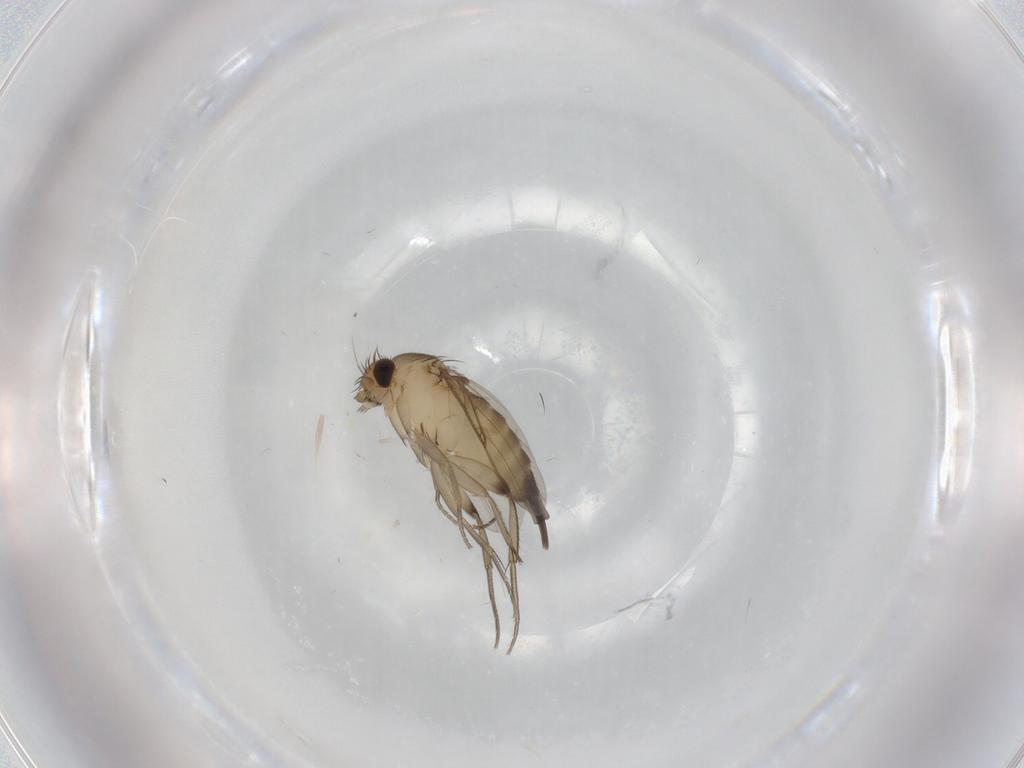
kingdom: Animalia
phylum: Arthropoda
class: Insecta
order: Diptera
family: Phoridae
